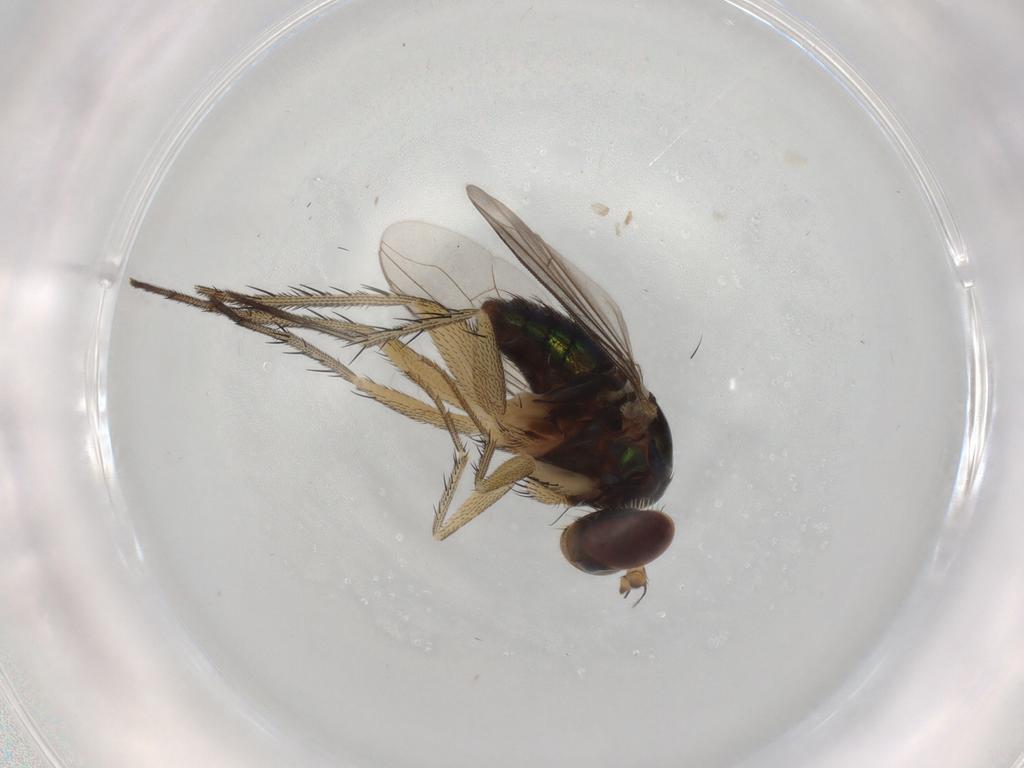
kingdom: Animalia
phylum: Arthropoda
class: Insecta
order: Diptera
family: Dolichopodidae
